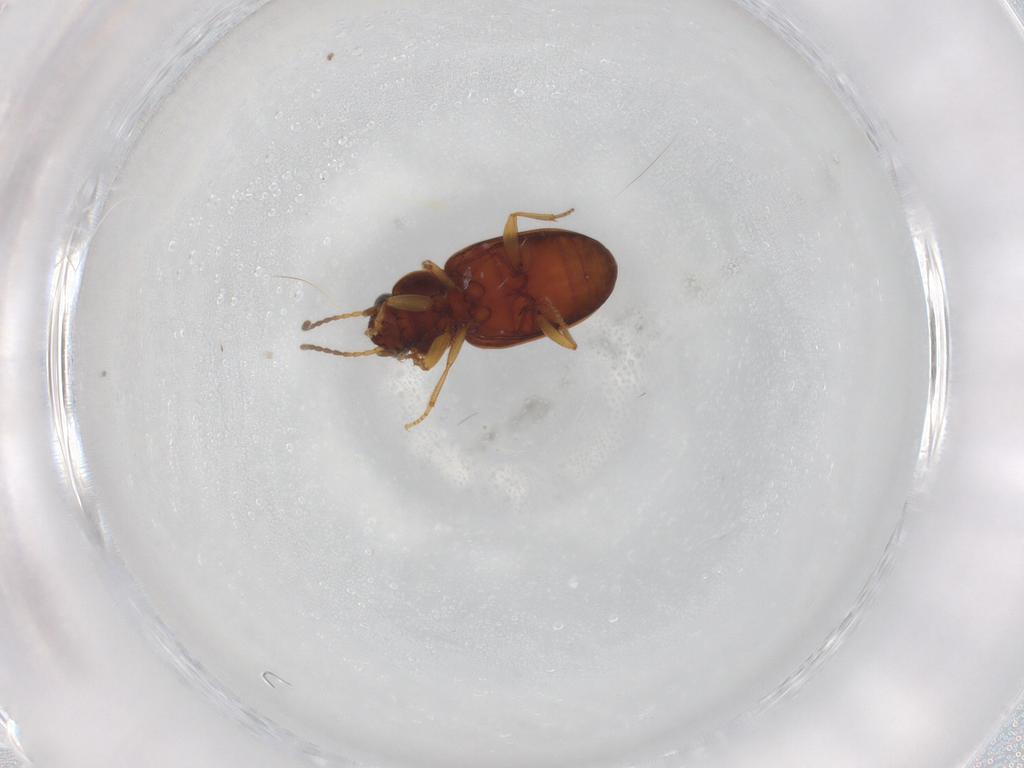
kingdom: Animalia
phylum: Arthropoda
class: Insecta
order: Coleoptera
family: Carabidae
